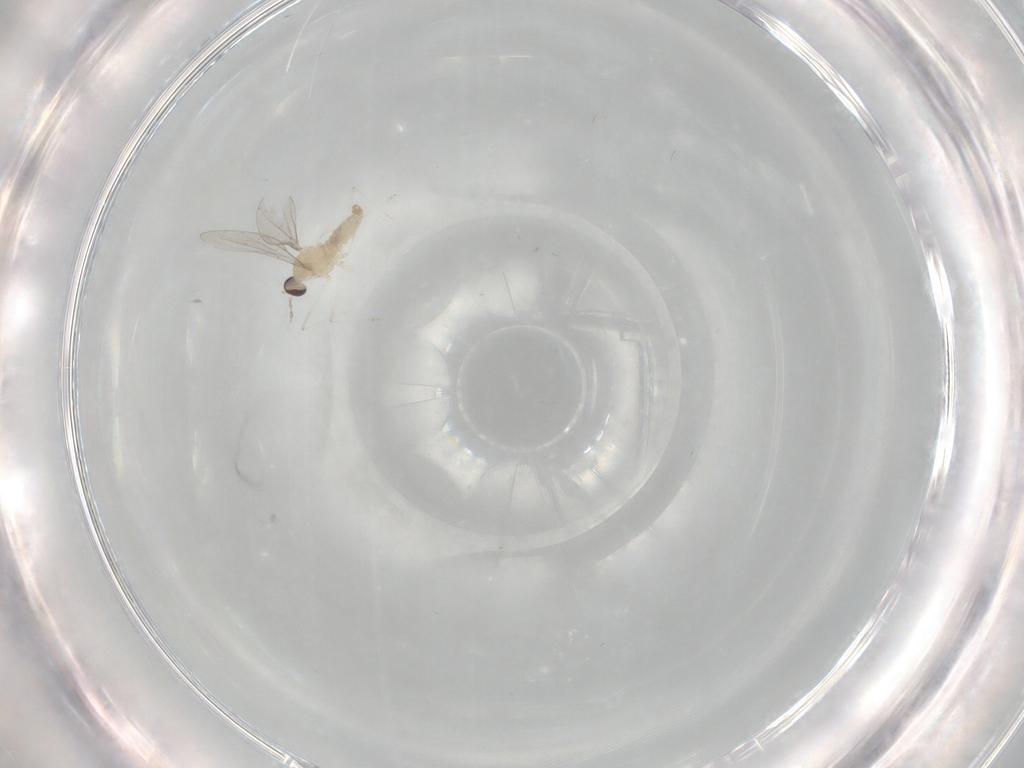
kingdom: Animalia
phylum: Arthropoda
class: Insecta
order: Diptera
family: Cecidomyiidae
